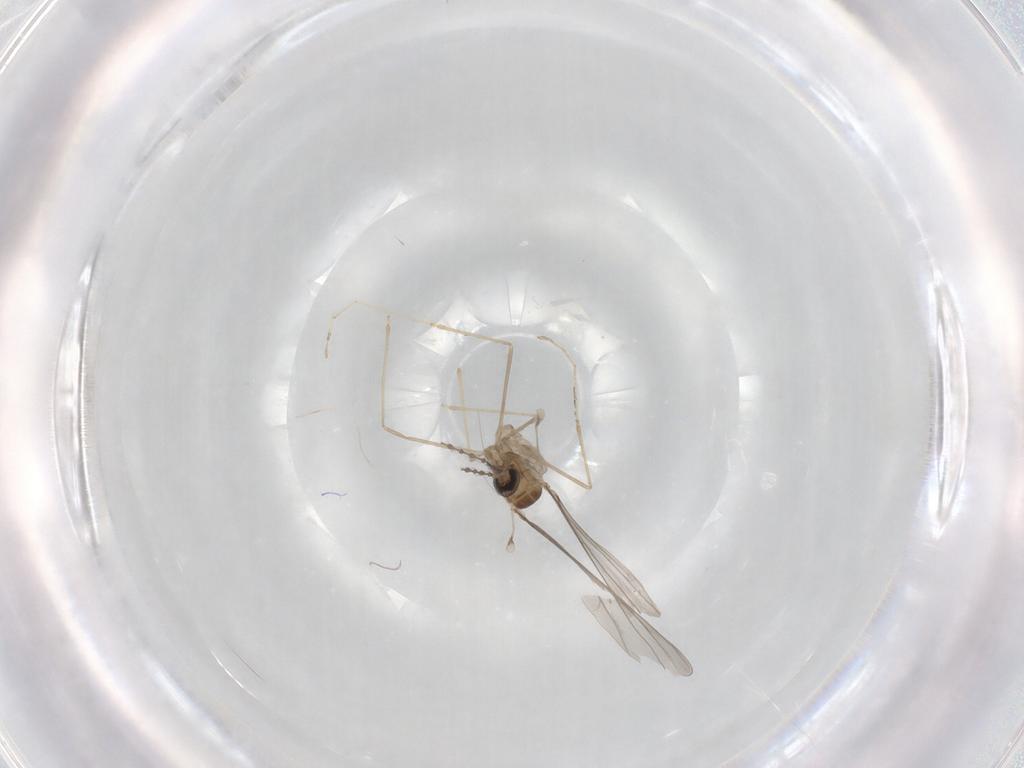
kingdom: Animalia
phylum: Arthropoda
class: Insecta
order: Diptera
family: Cecidomyiidae
